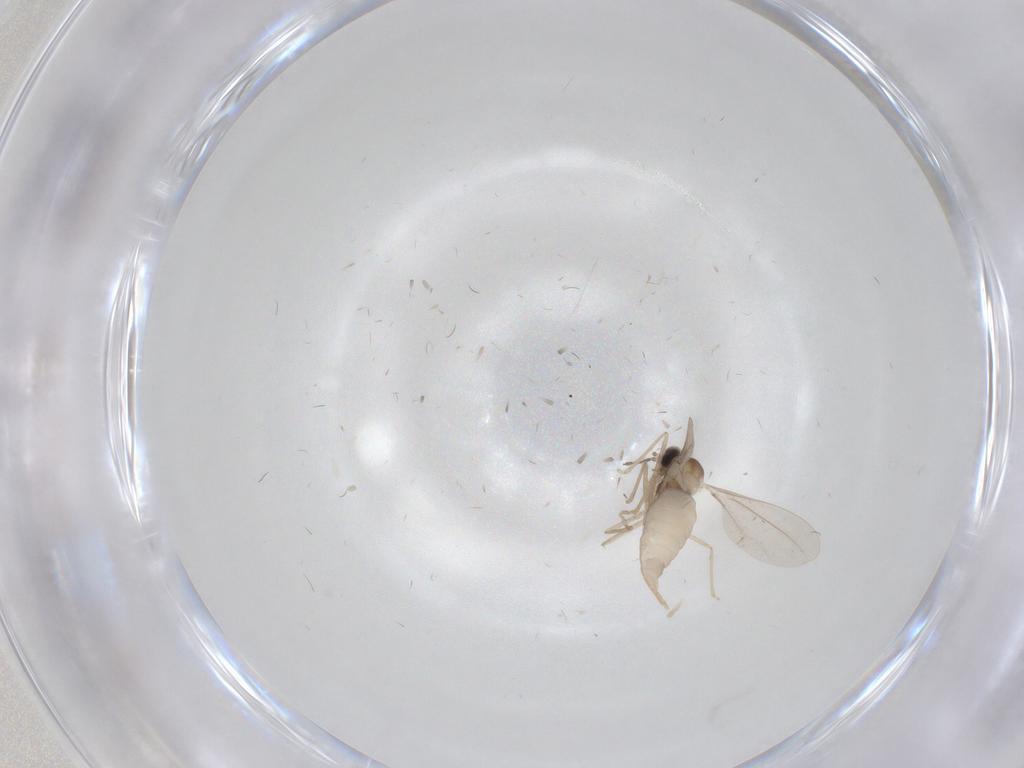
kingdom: Animalia
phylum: Arthropoda
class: Insecta
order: Diptera
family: Cecidomyiidae
